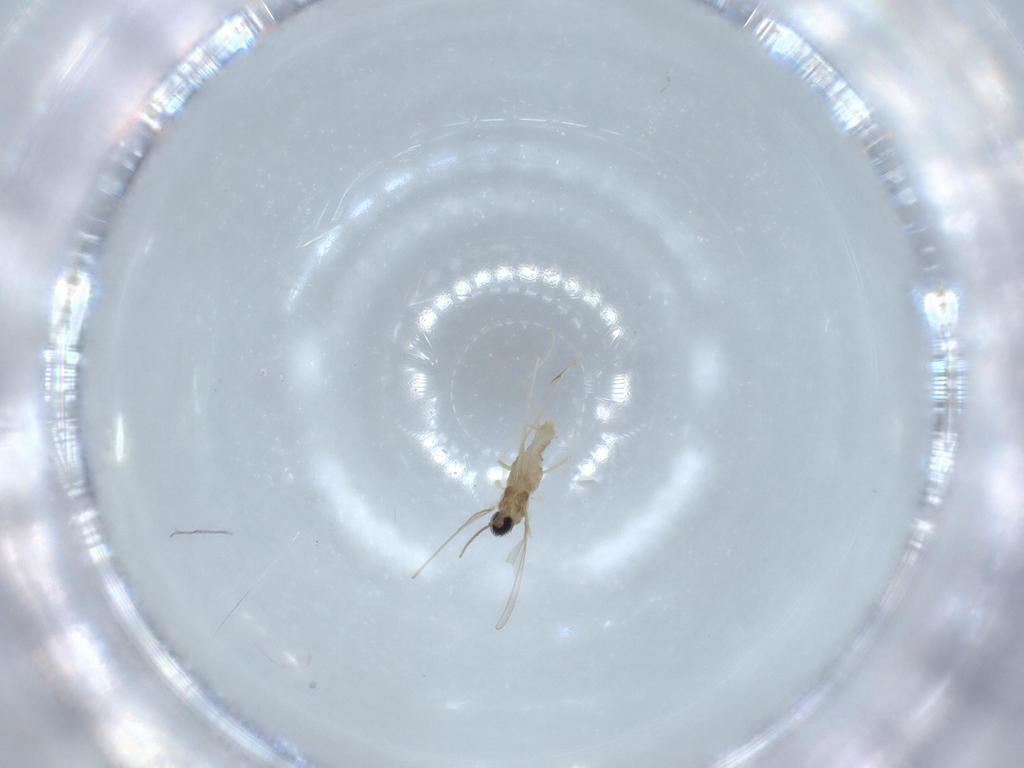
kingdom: Animalia
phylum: Arthropoda
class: Insecta
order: Diptera
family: Cecidomyiidae
